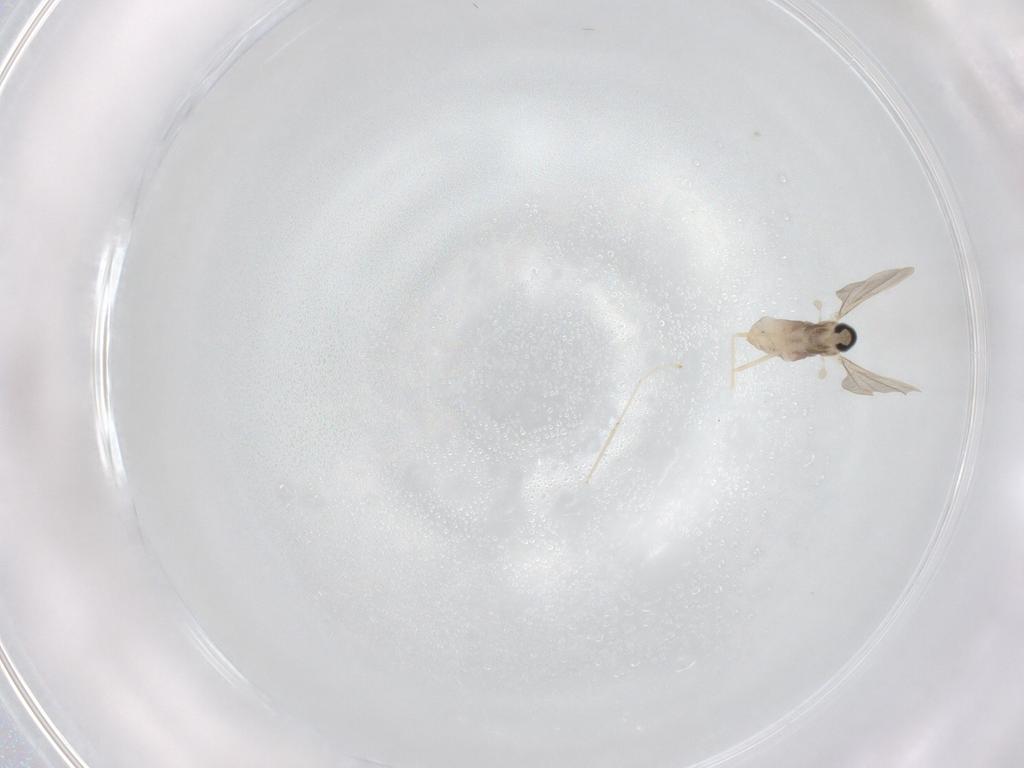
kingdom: Animalia
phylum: Arthropoda
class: Insecta
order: Diptera
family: Cecidomyiidae
